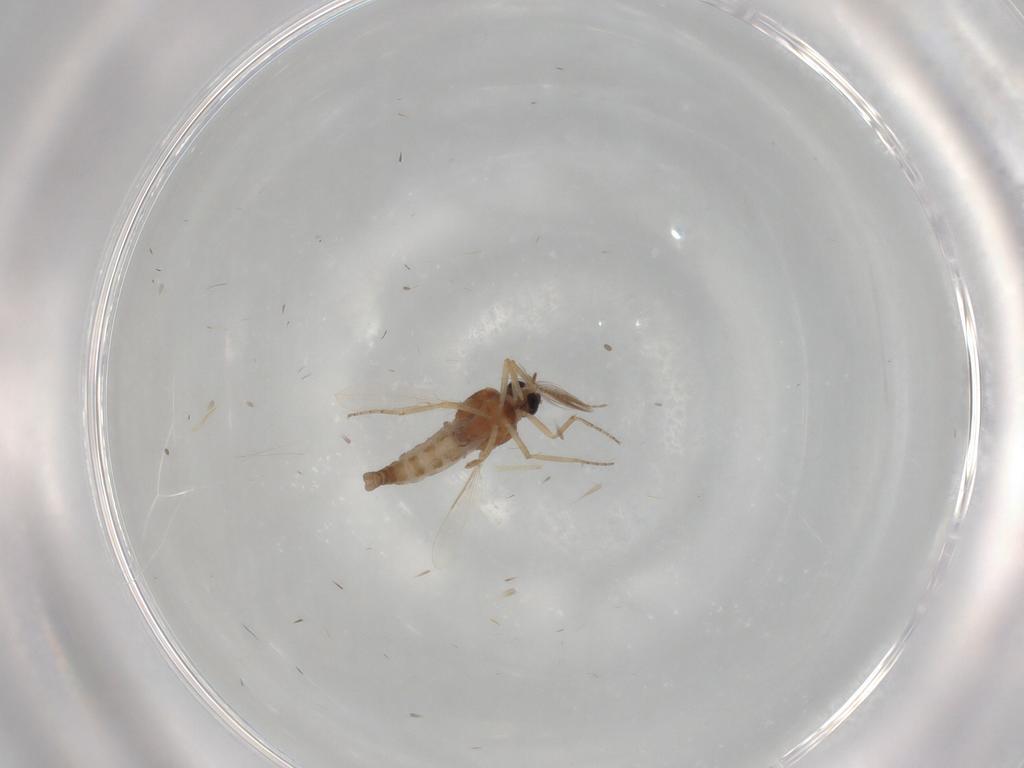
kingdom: Animalia
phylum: Arthropoda
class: Insecta
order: Diptera
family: Ceratopogonidae
